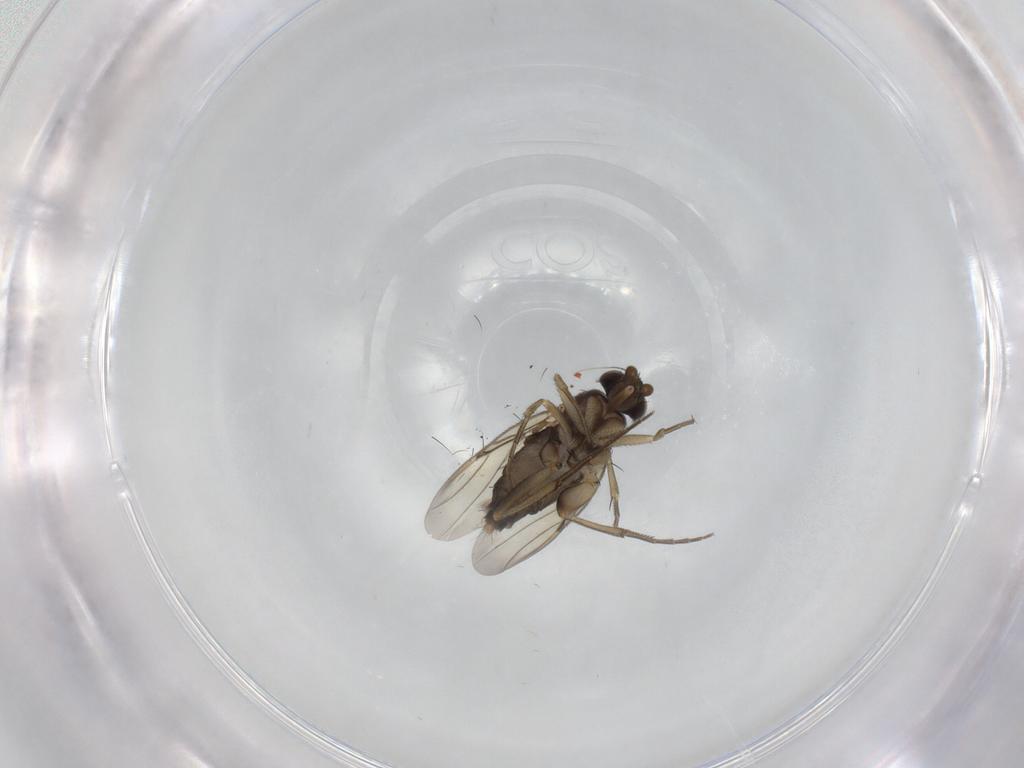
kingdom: Animalia
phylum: Arthropoda
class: Insecta
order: Diptera
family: Phoridae
